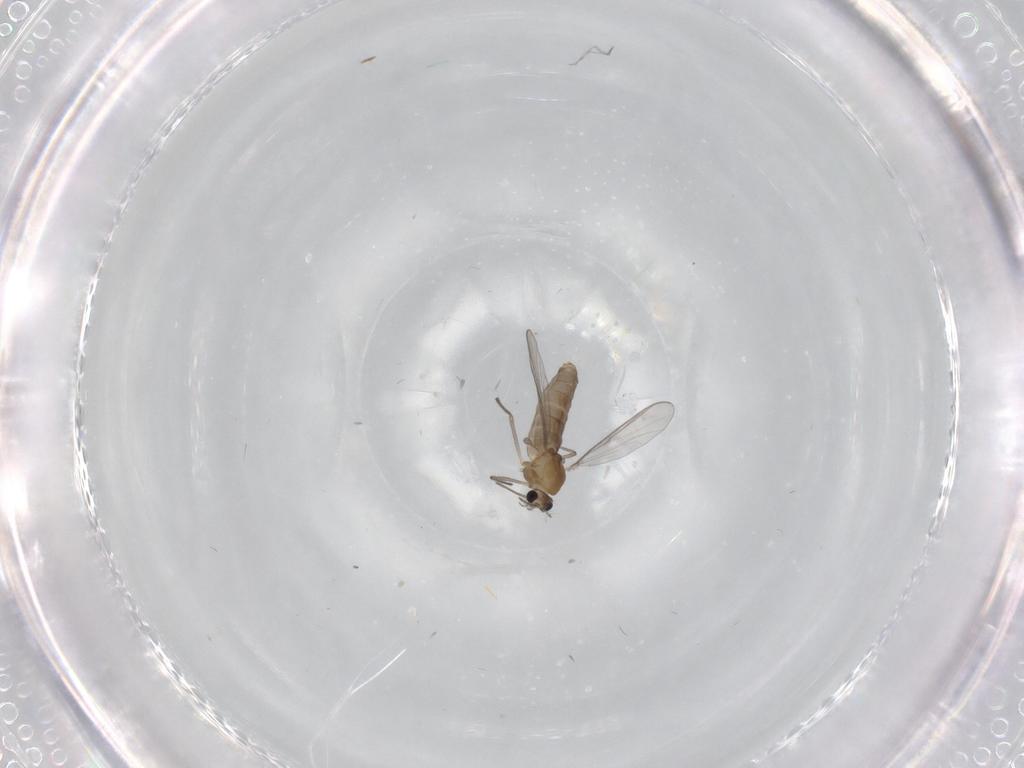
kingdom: Animalia
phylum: Arthropoda
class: Insecta
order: Diptera
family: Chironomidae
